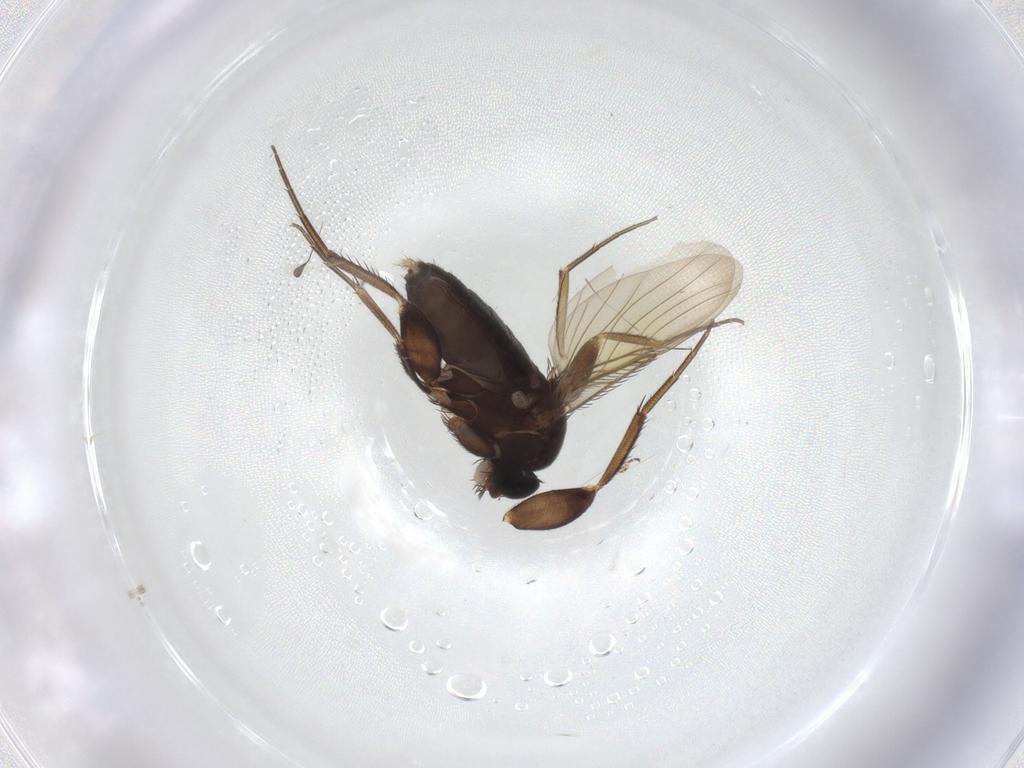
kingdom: Animalia
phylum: Arthropoda
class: Insecta
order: Diptera
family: Phoridae
